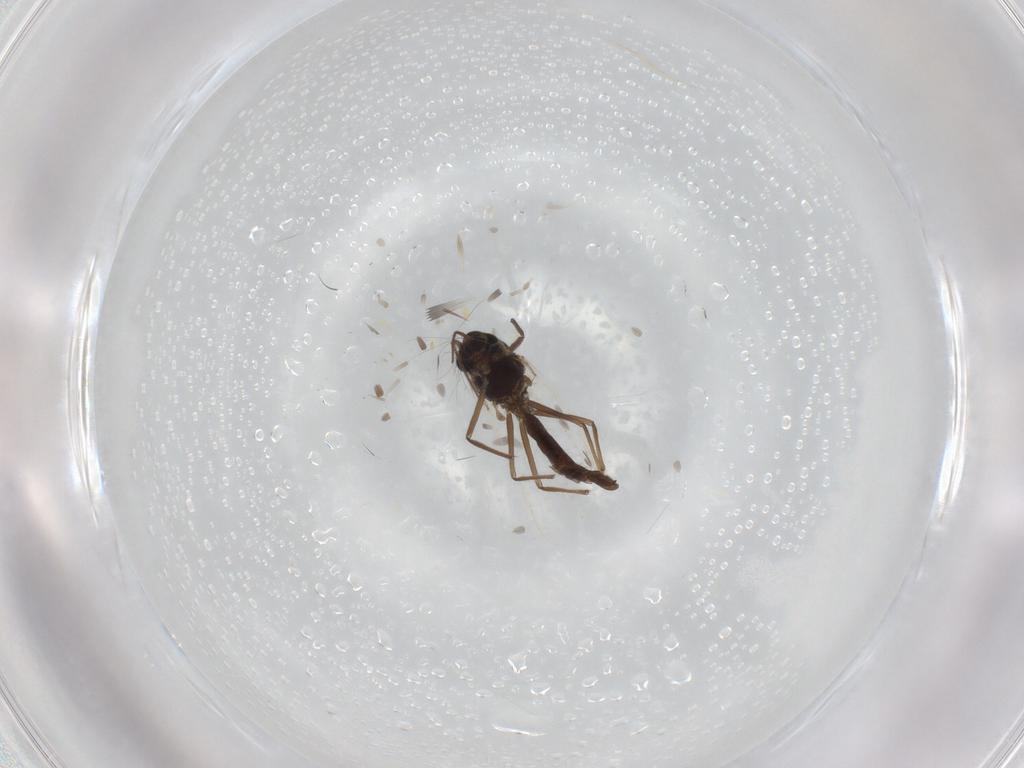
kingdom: Animalia
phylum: Arthropoda
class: Insecta
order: Diptera
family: Chironomidae
